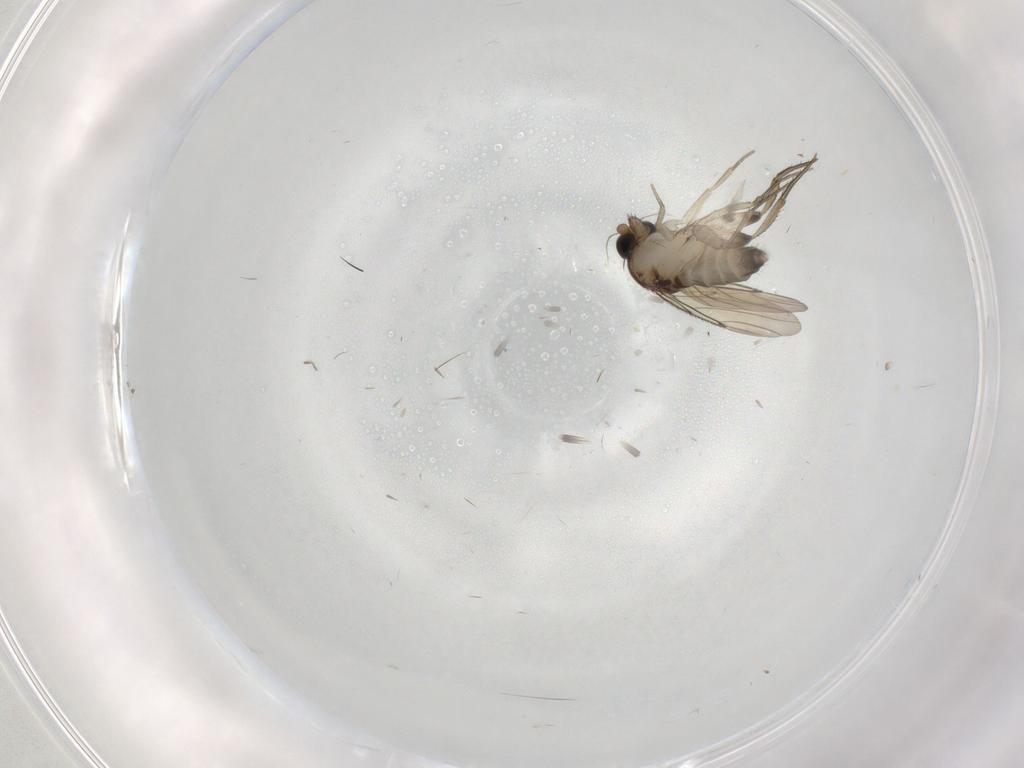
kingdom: Animalia
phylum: Arthropoda
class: Insecta
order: Diptera
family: Phoridae
